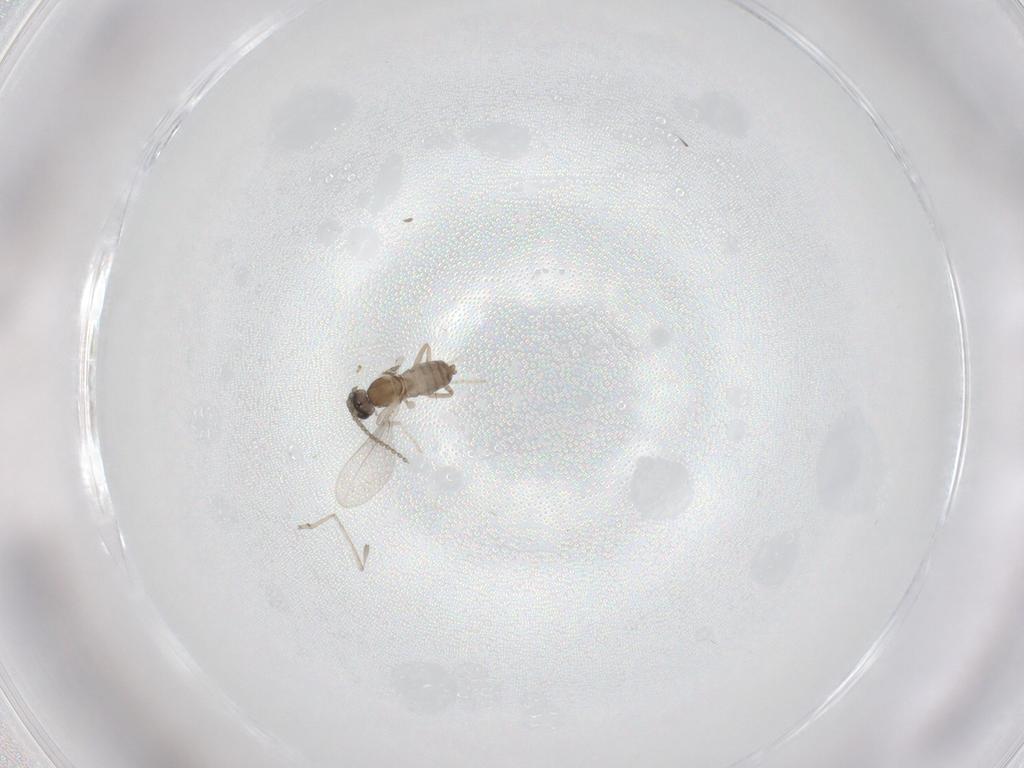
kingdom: Animalia
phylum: Arthropoda
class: Insecta
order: Diptera
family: Cecidomyiidae
